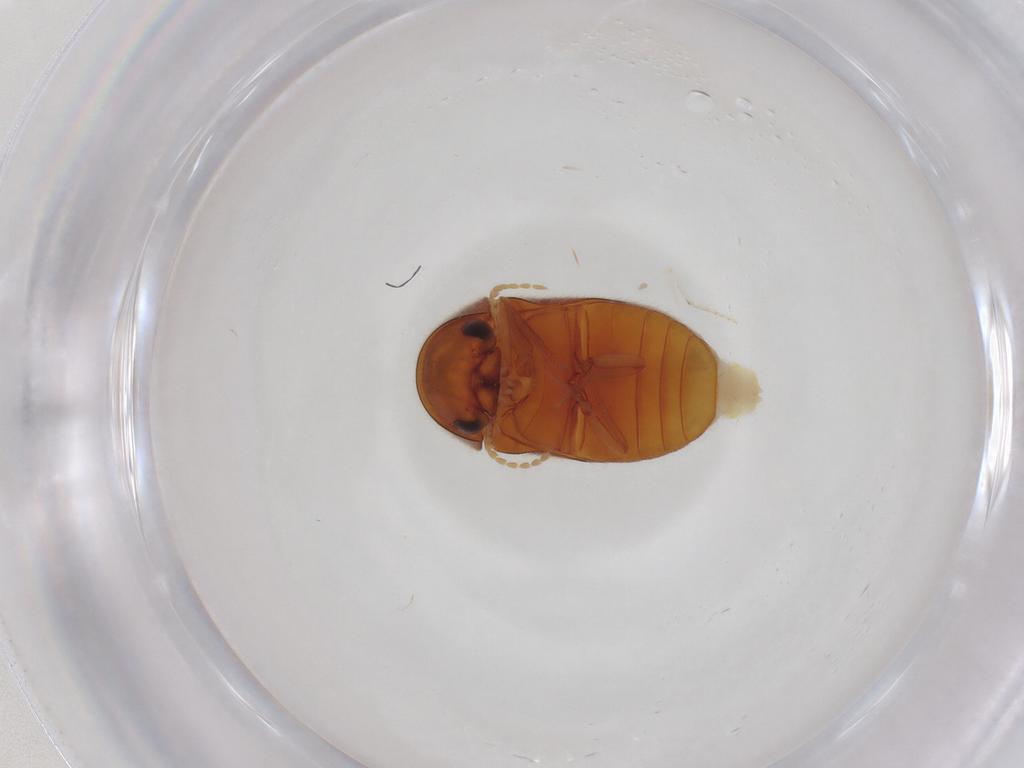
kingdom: Animalia
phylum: Arthropoda
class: Insecta
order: Coleoptera
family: Ptinidae
